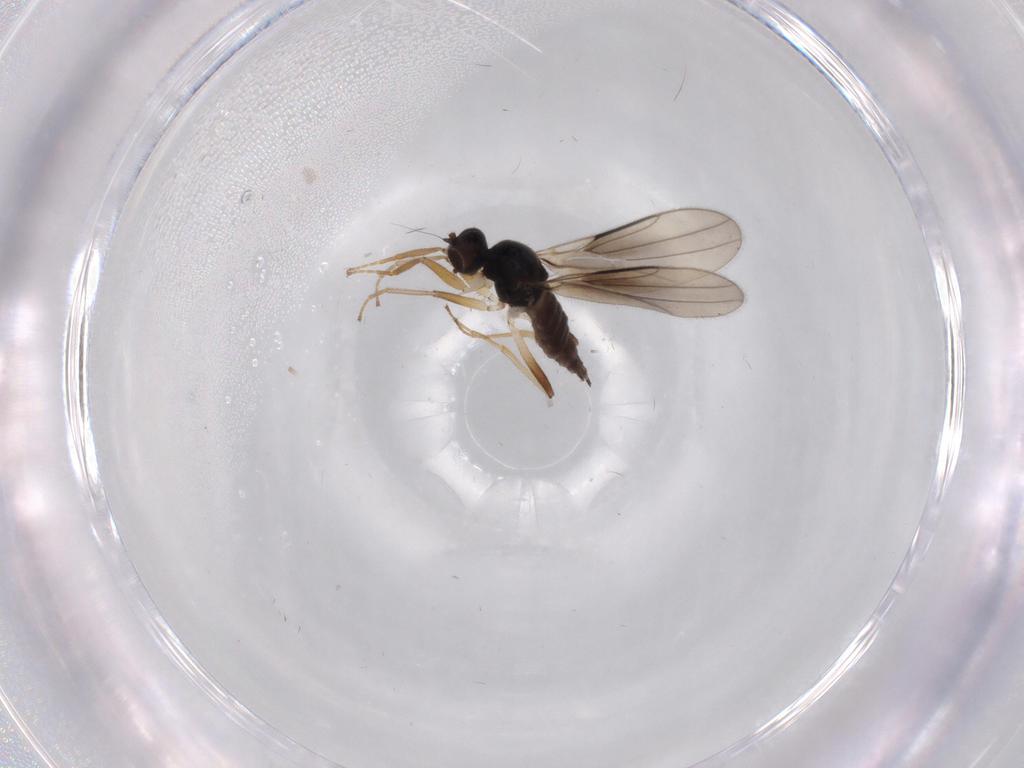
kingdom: Animalia
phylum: Arthropoda
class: Insecta
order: Diptera
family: Hybotidae
